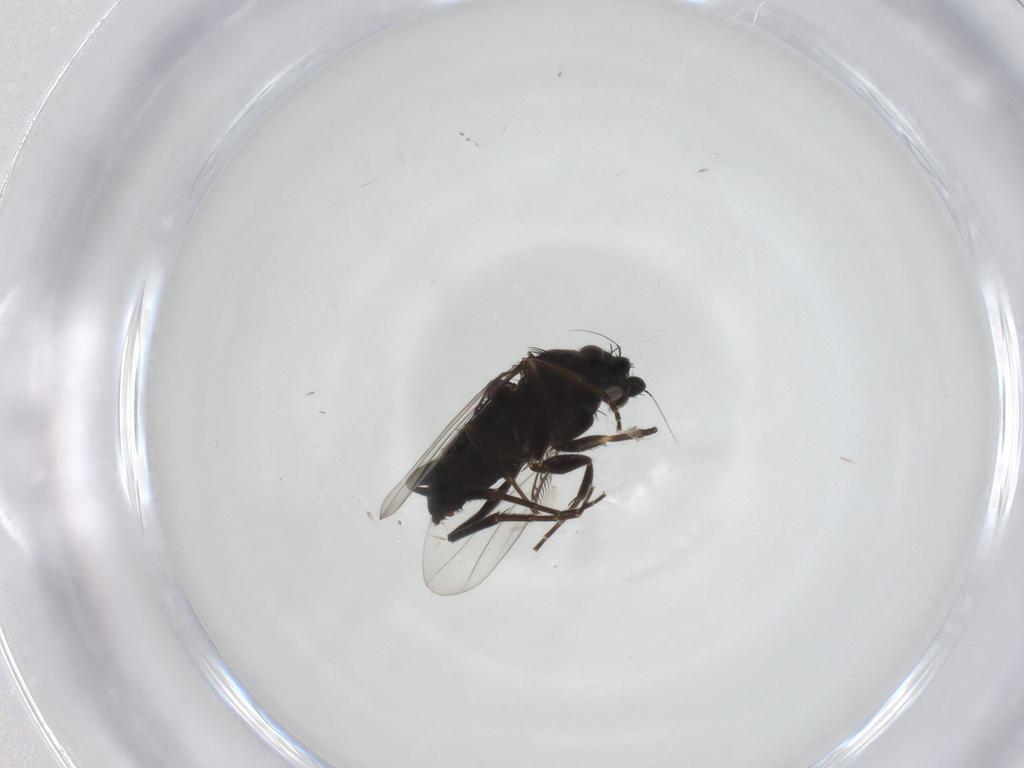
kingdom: Animalia
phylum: Arthropoda
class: Insecta
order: Diptera
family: Phoridae
